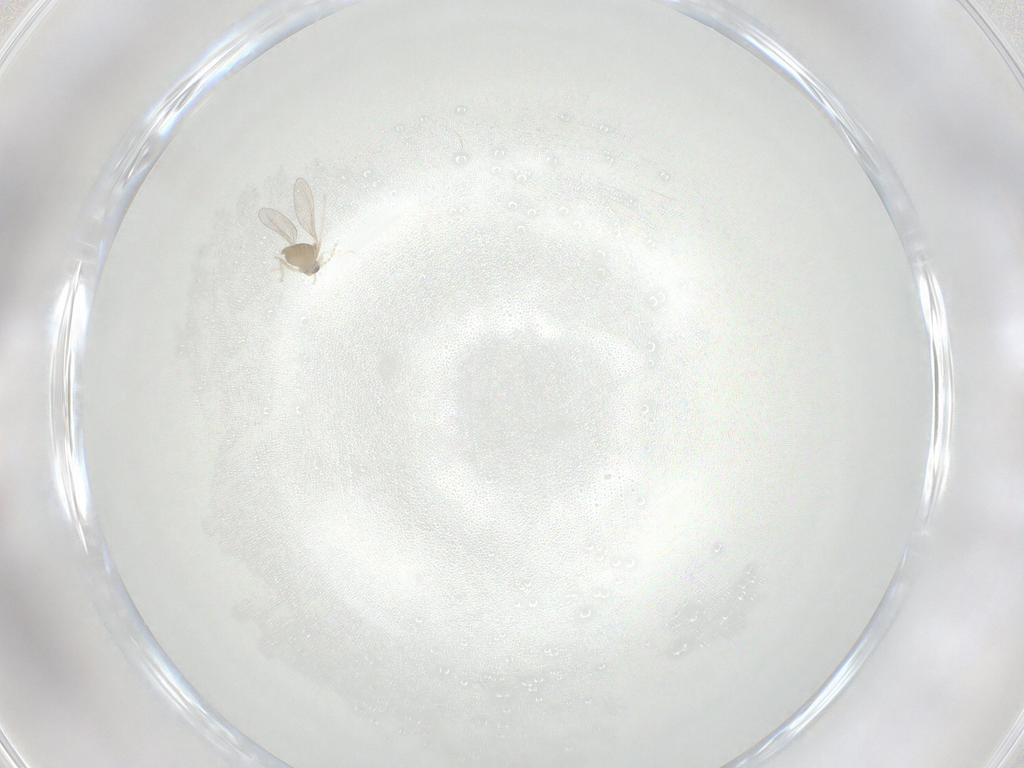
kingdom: Animalia
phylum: Arthropoda
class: Insecta
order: Diptera
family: Cecidomyiidae
